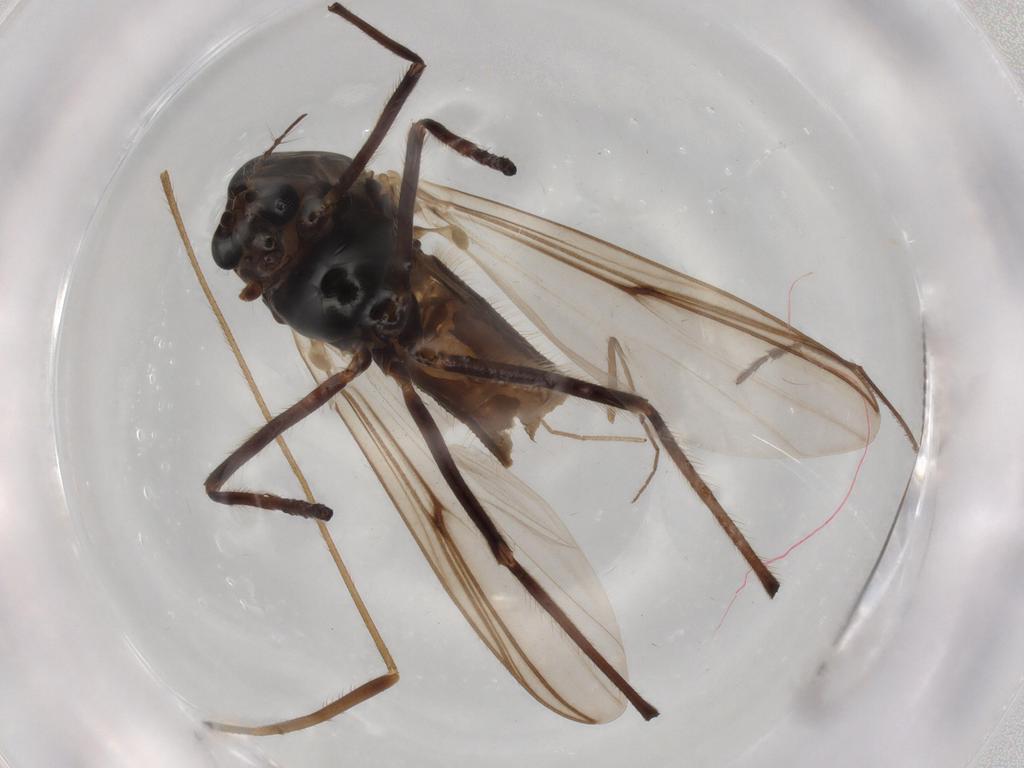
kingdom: Animalia
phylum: Arthropoda
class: Insecta
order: Diptera
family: Chironomidae
